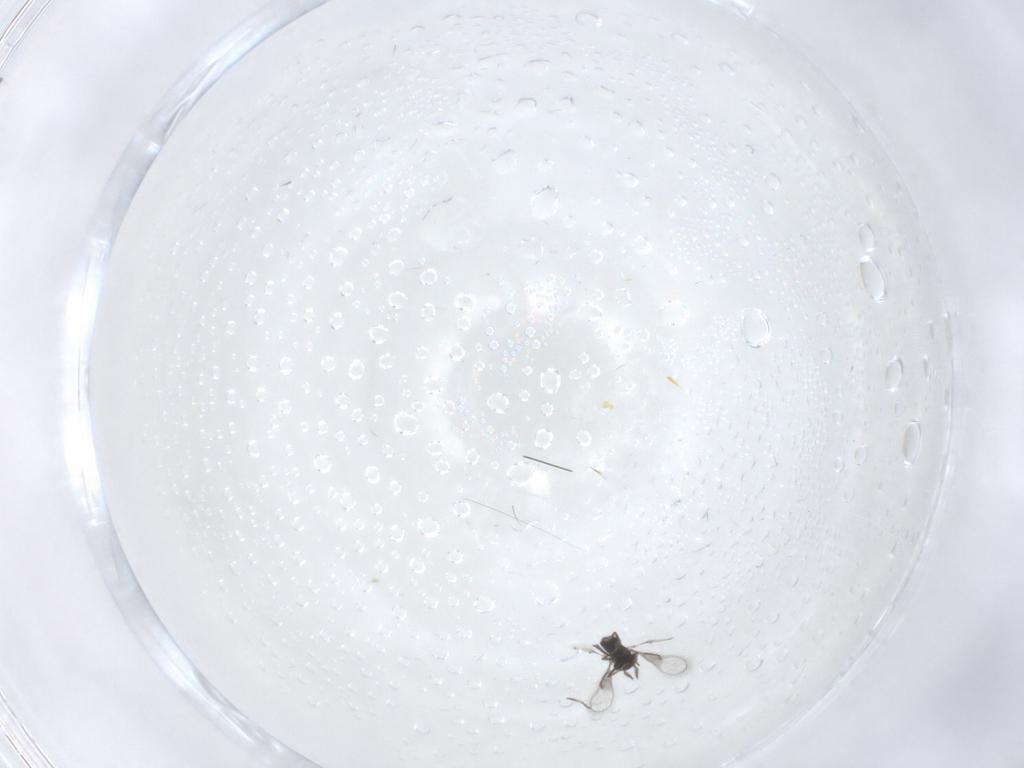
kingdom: Animalia
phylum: Arthropoda
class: Insecta
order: Hymenoptera
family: Trichogrammatidae
